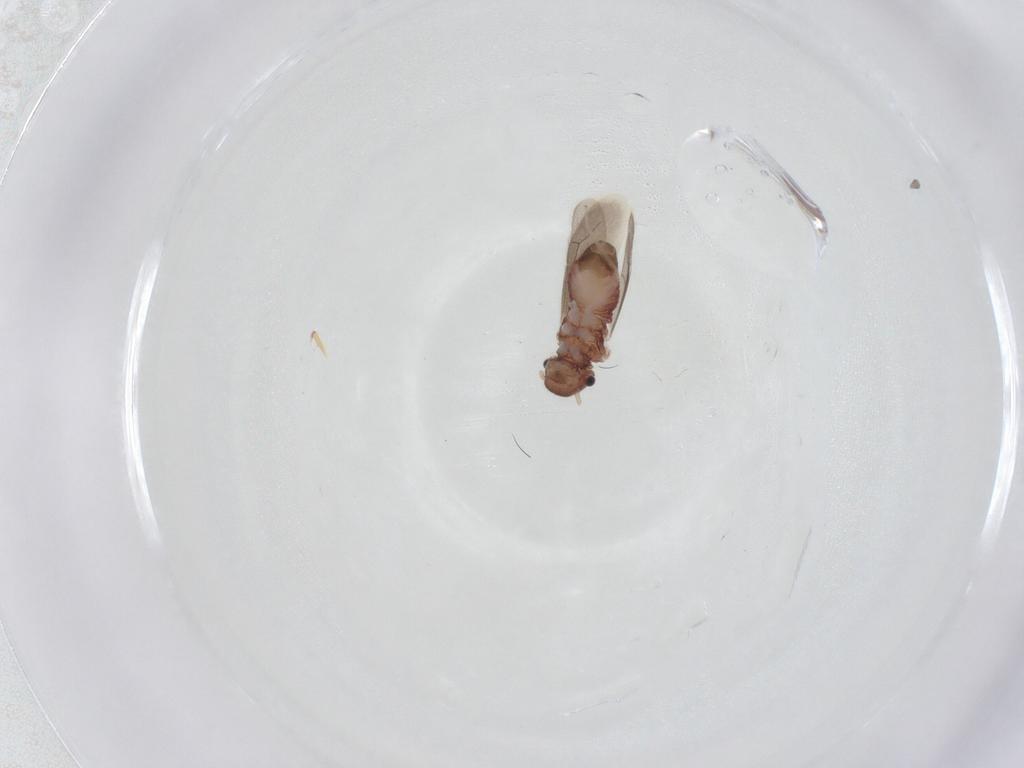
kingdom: Animalia
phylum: Arthropoda
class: Insecta
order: Psocodea
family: Archipsocidae
